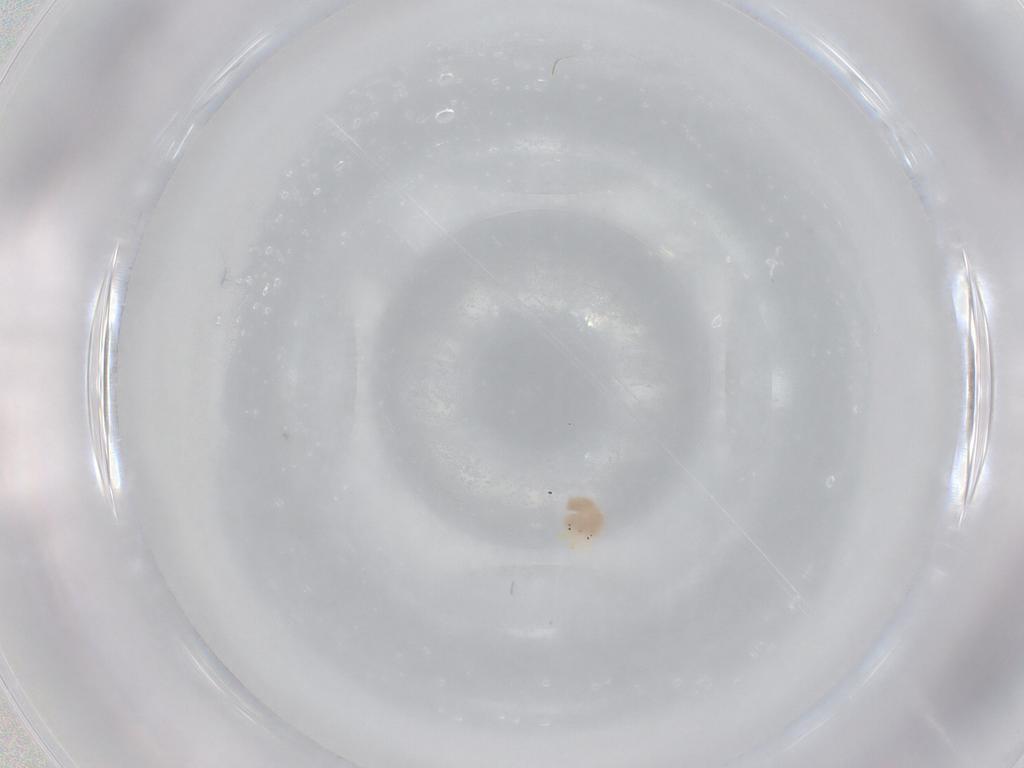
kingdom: Animalia
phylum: Arthropoda
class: Arachnida
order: Trombidiformes
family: Hydryphantidae
